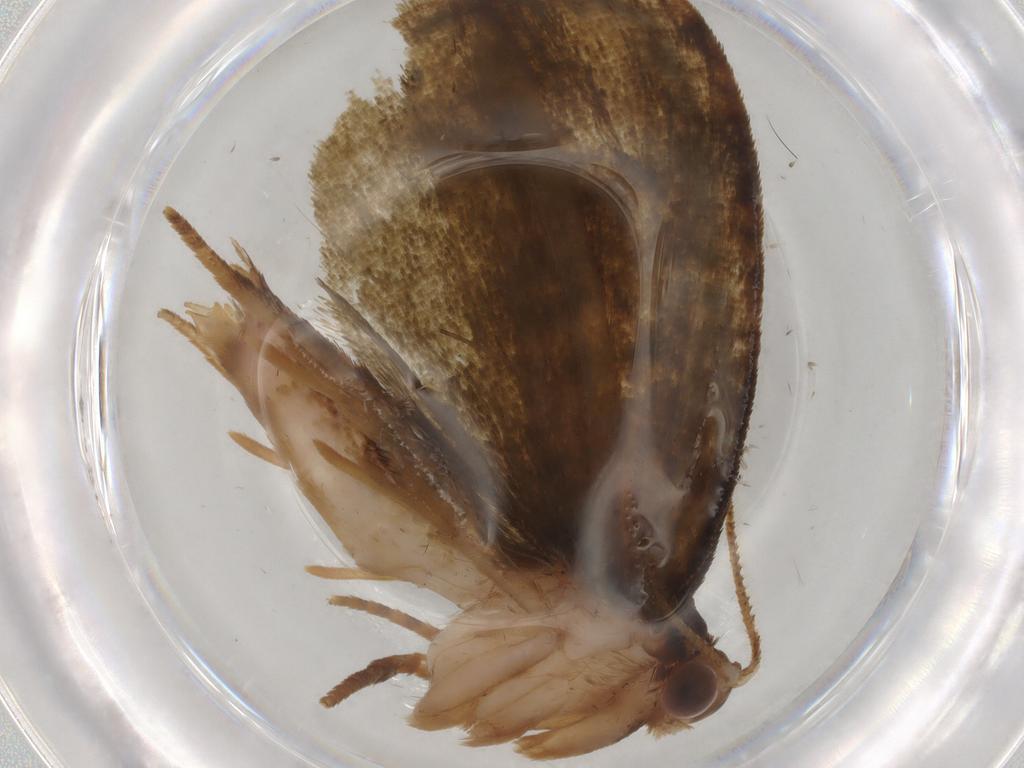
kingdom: Animalia
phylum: Arthropoda
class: Insecta
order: Lepidoptera
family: Geometridae
